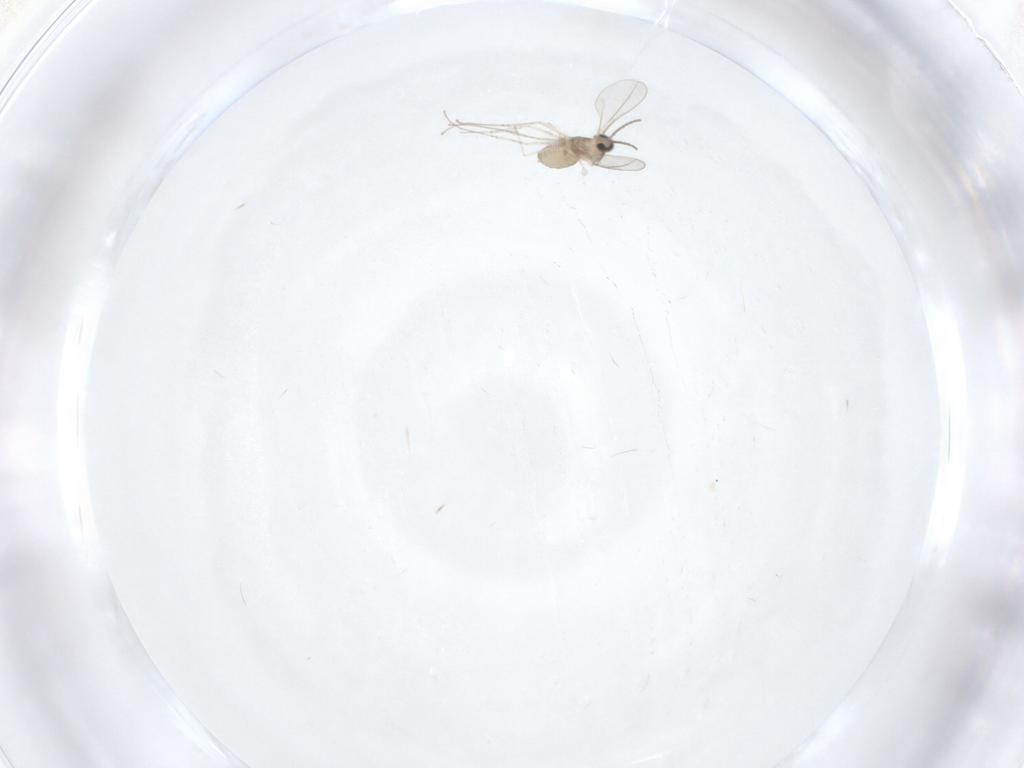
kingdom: Animalia
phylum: Arthropoda
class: Insecta
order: Diptera
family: Cecidomyiidae
